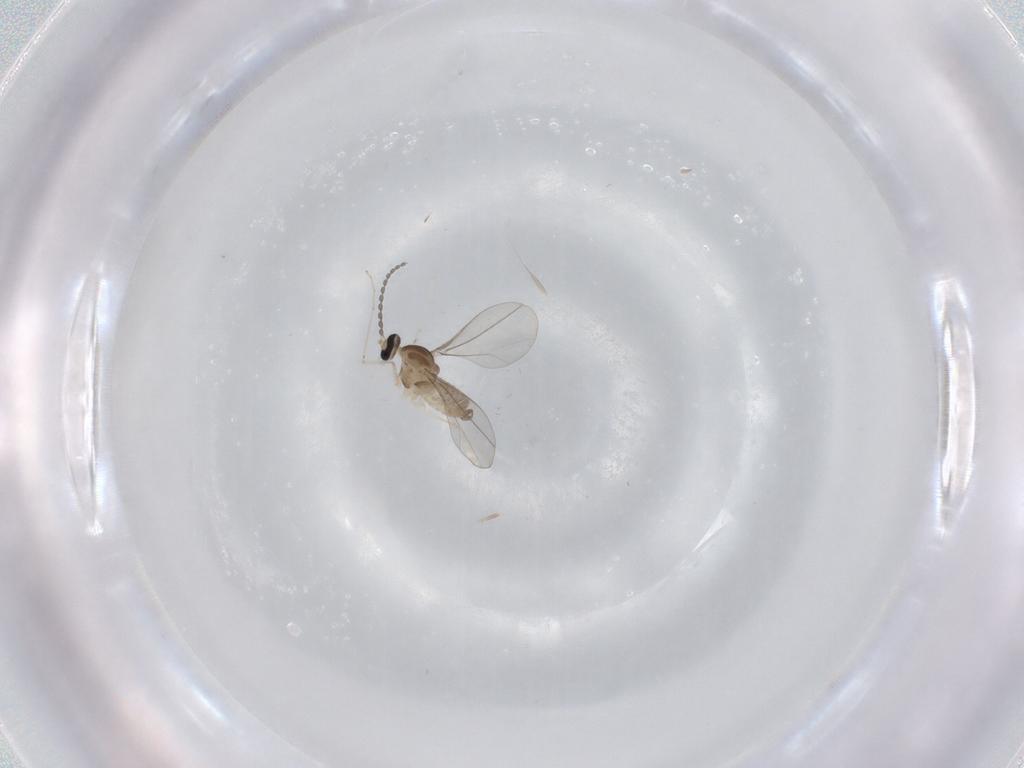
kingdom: Animalia
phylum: Arthropoda
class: Insecta
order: Diptera
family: Cecidomyiidae
